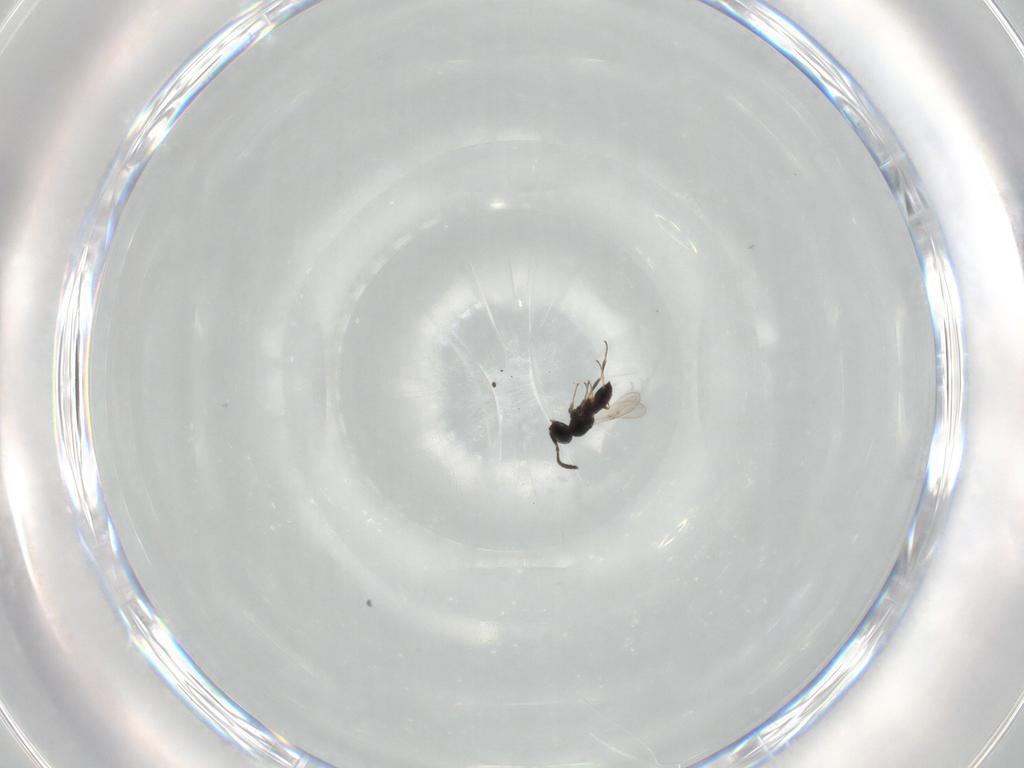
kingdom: Animalia
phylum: Arthropoda
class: Insecta
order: Hymenoptera
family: Scelionidae
